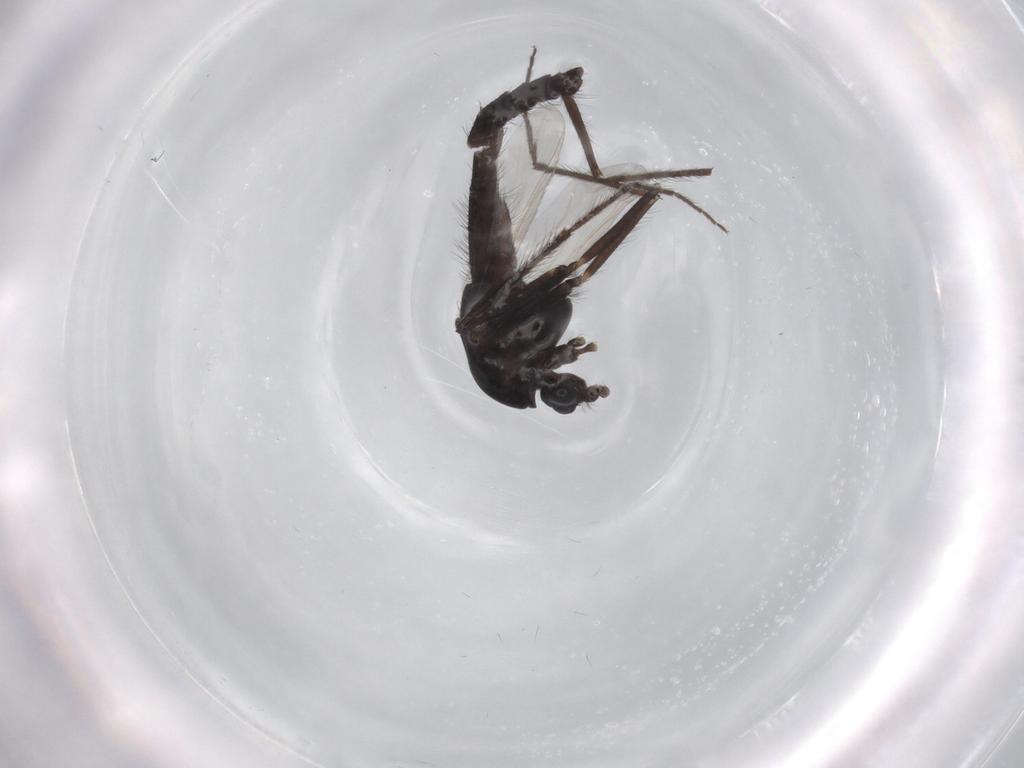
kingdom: Animalia
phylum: Arthropoda
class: Insecta
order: Diptera
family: Chironomidae
